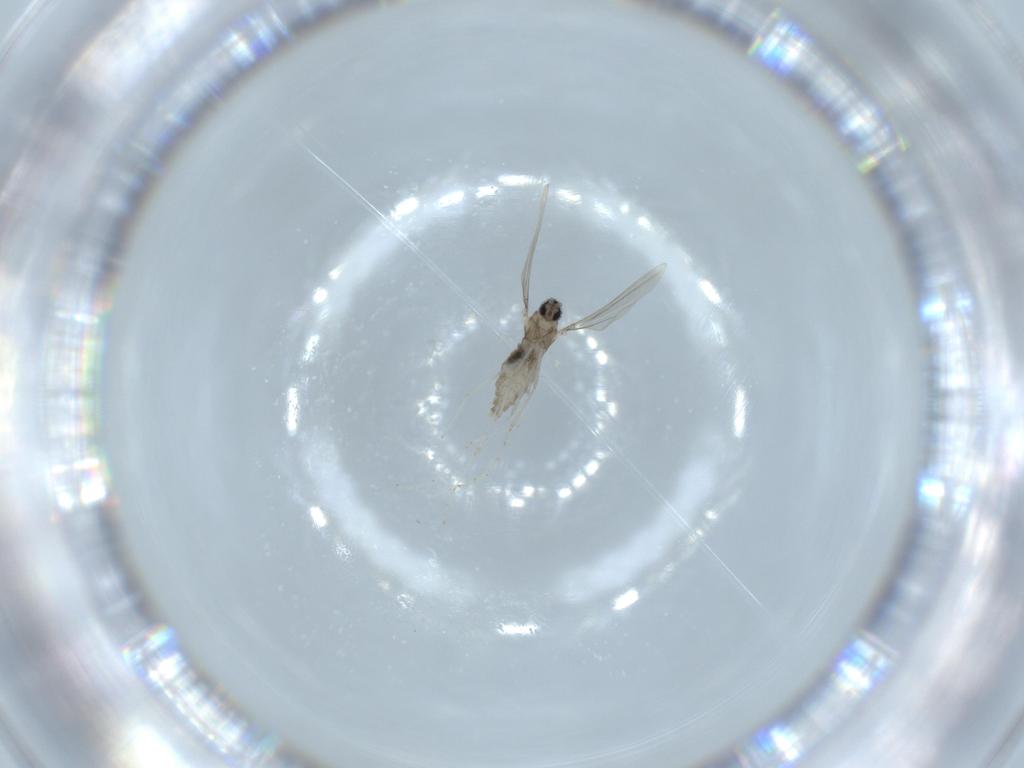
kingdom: Animalia
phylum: Arthropoda
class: Insecta
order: Diptera
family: Cecidomyiidae
